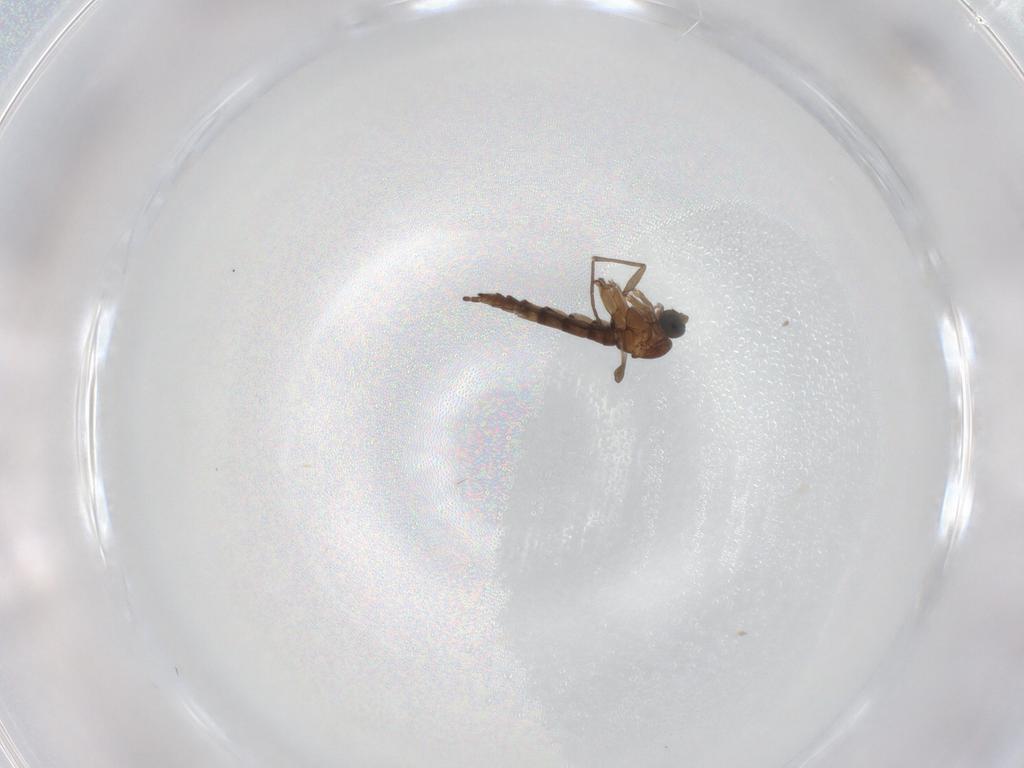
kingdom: Animalia
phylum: Arthropoda
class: Insecta
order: Diptera
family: Sciaridae
